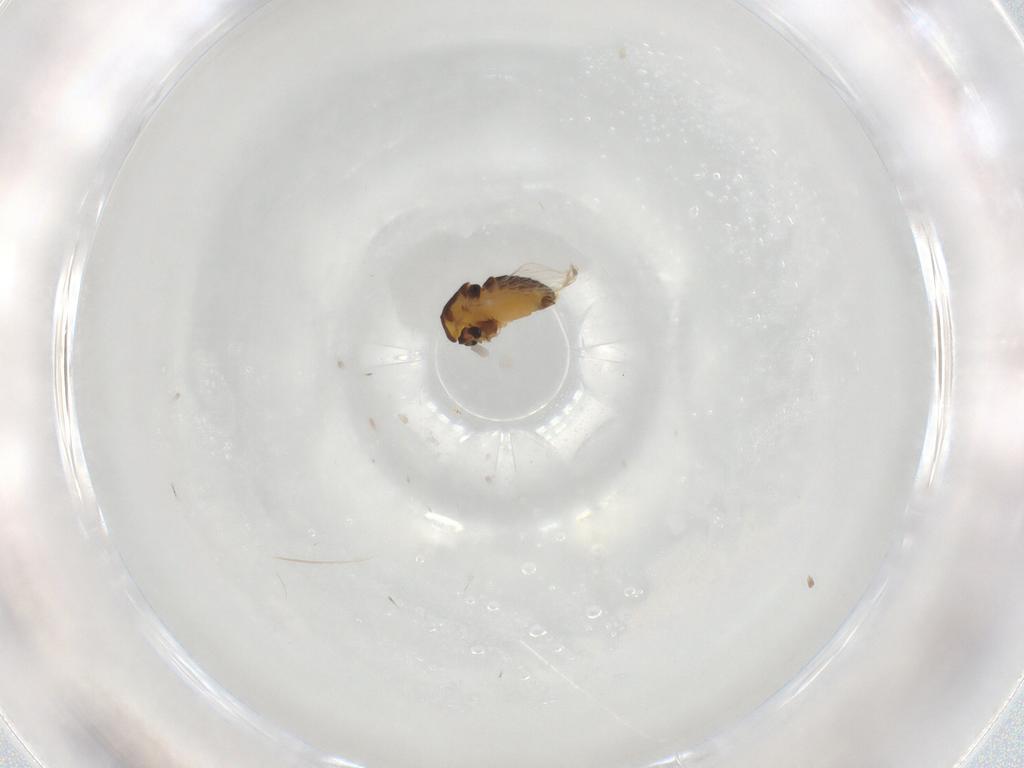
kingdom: Animalia
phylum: Arthropoda
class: Insecta
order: Diptera
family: Chironomidae
